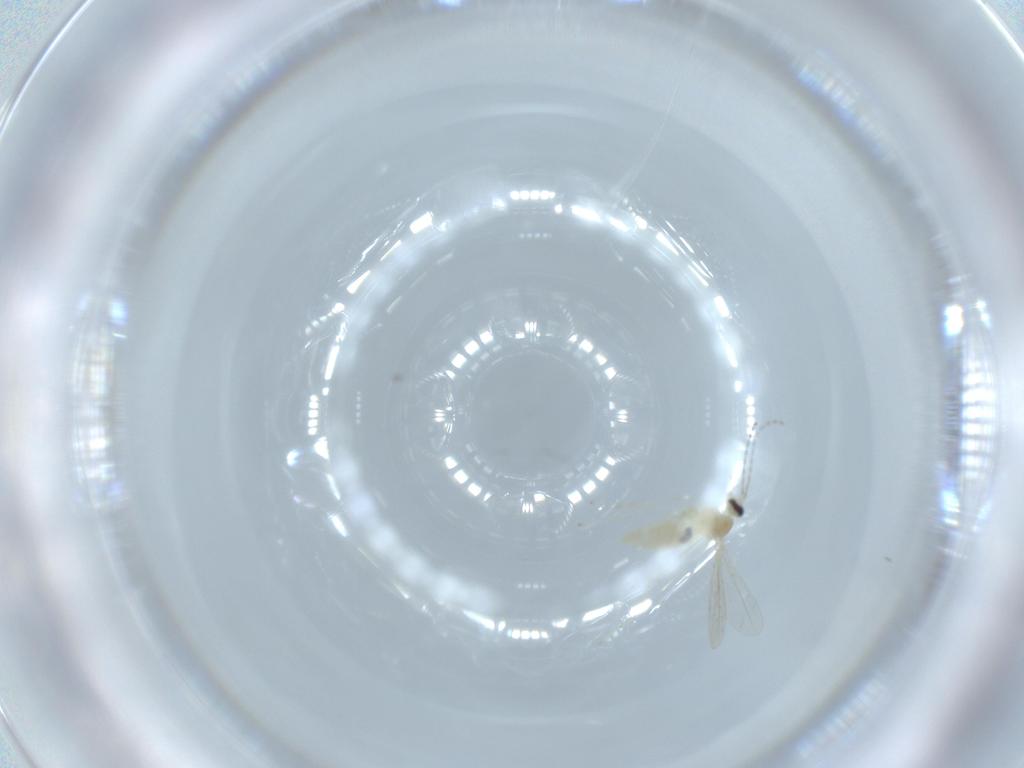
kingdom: Animalia
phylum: Arthropoda
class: Insecta
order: Diptera
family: Cecidomyiidae
